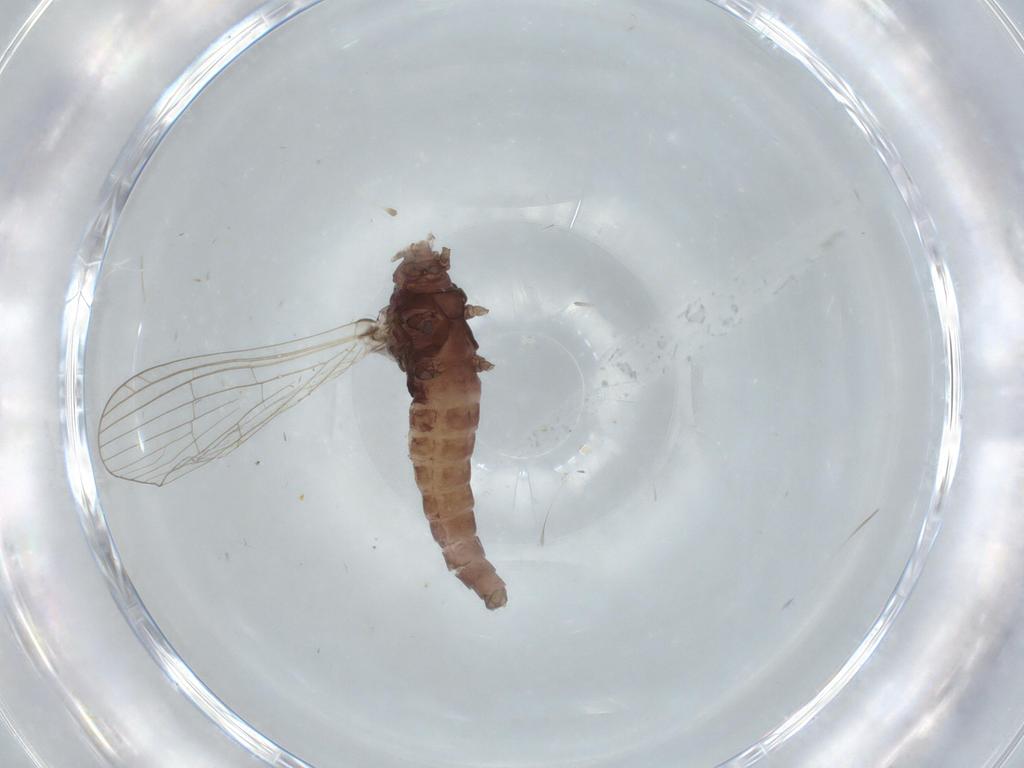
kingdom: Animalia
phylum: Arthropoda
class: Insecta
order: Ephemeroptera
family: Baetidae
